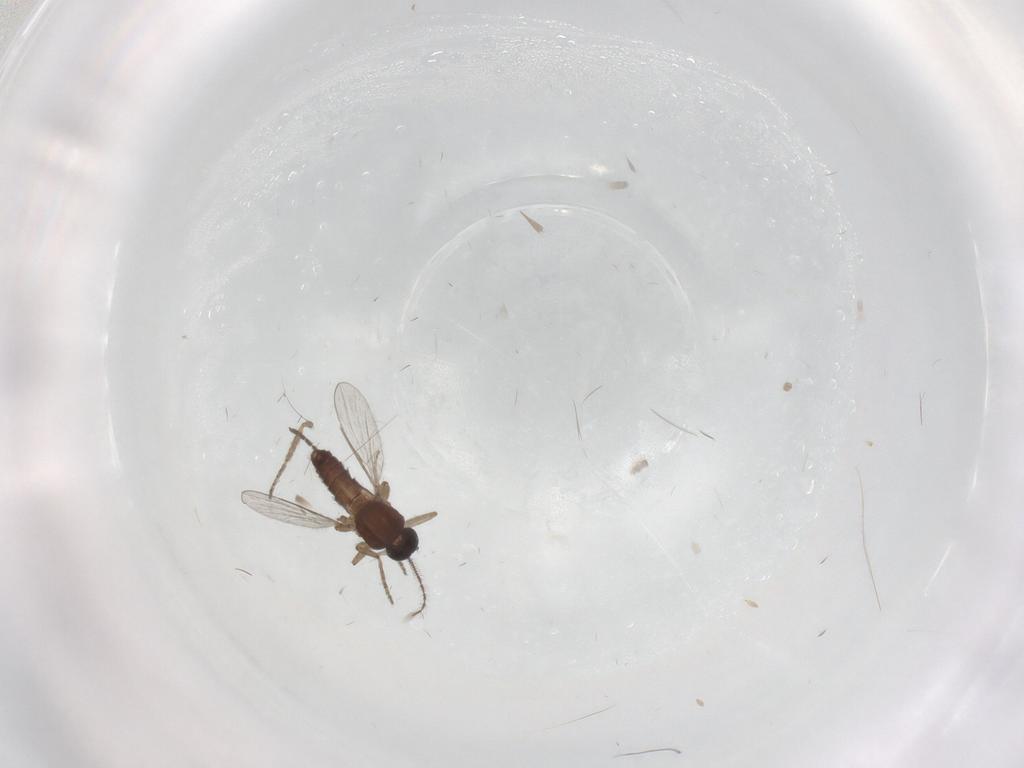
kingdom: Animalia
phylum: Arthropoda
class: Insecta
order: Diptera
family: Ceratopogonidae
